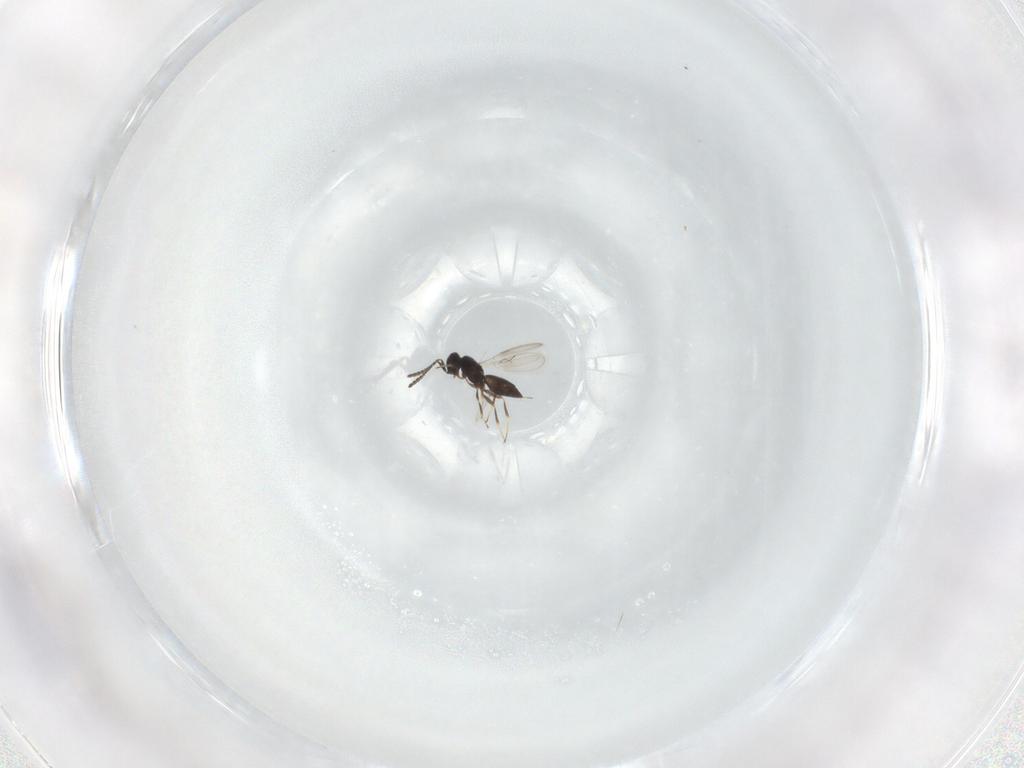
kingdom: Animalia
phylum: Arthropoda
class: Insecta
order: Hymenoptera
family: Scelionidae
